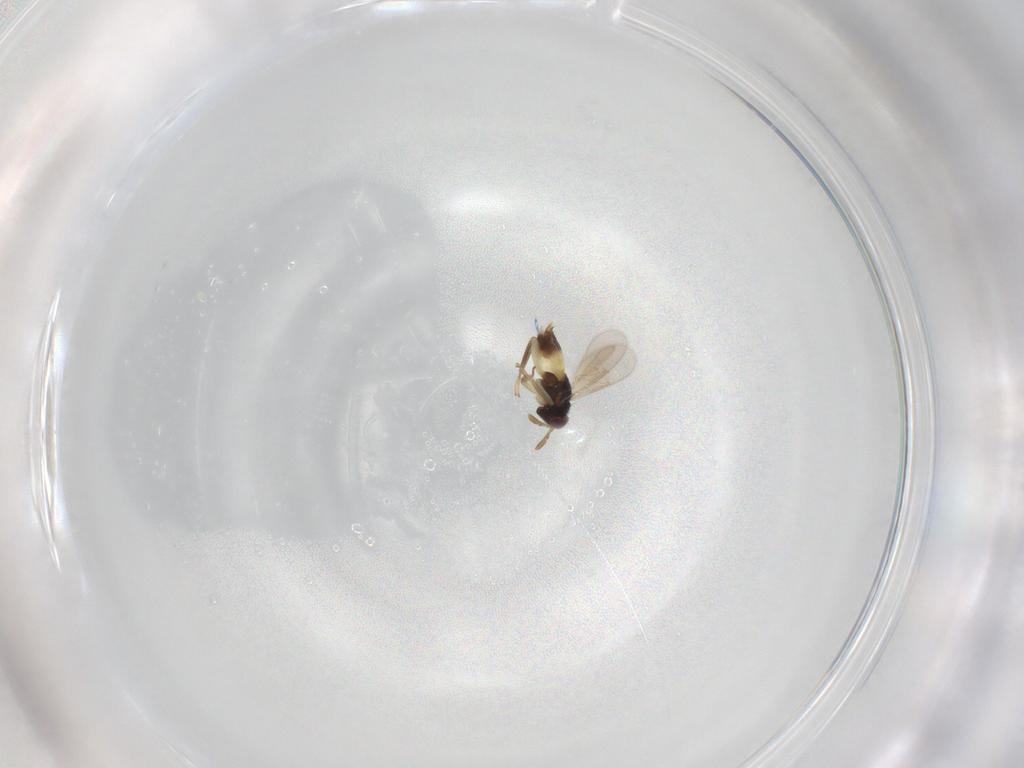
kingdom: Animalia
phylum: Arthropoda
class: Insecta
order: Hymenoptera
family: Aphelinidae
